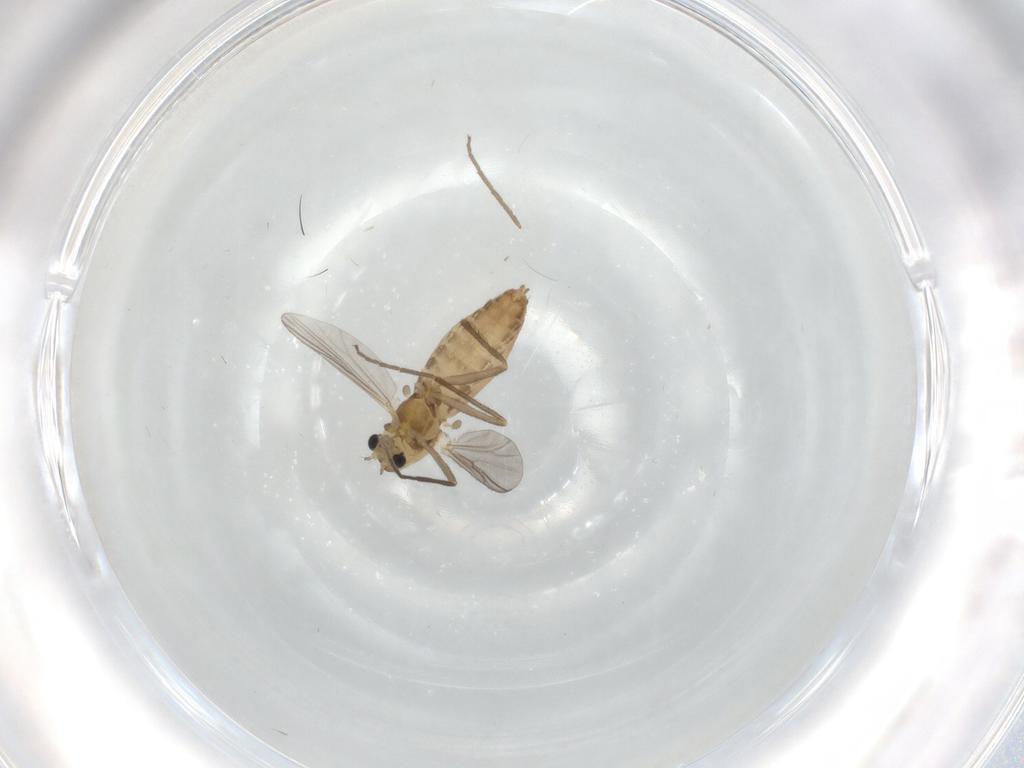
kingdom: Animalia
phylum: Arthropoda
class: Insecta
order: Diptera
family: Chironomidae
